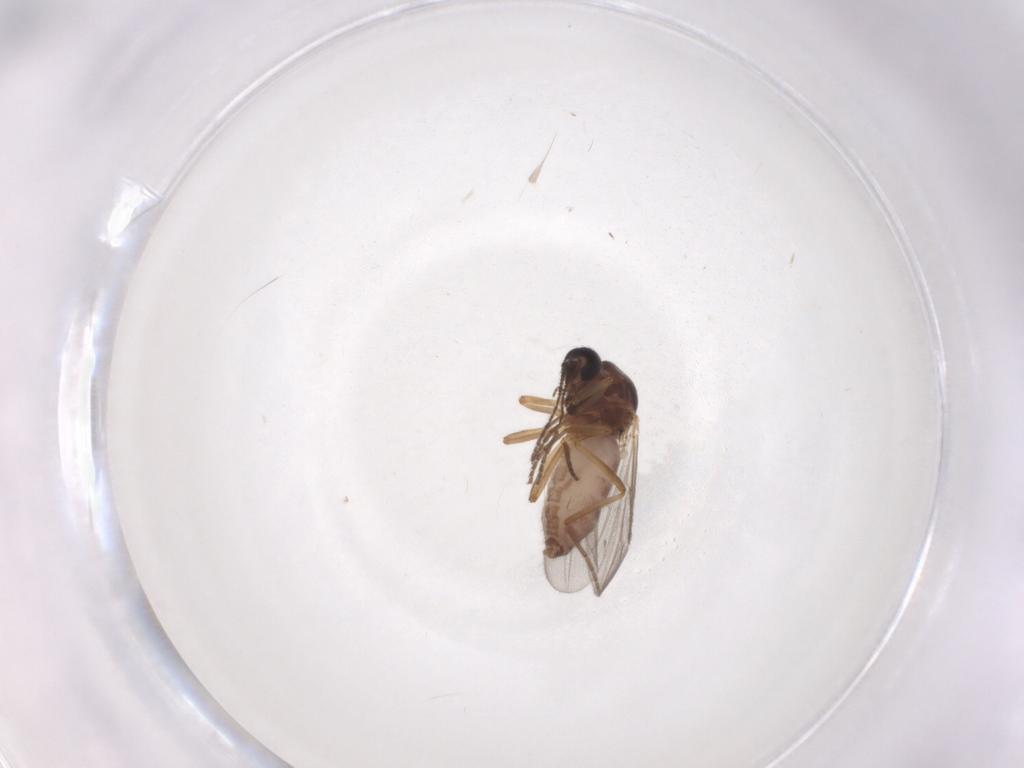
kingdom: Animalia
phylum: Arthropoda
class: Insecta
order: Diptera
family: Ceratopogonidae
